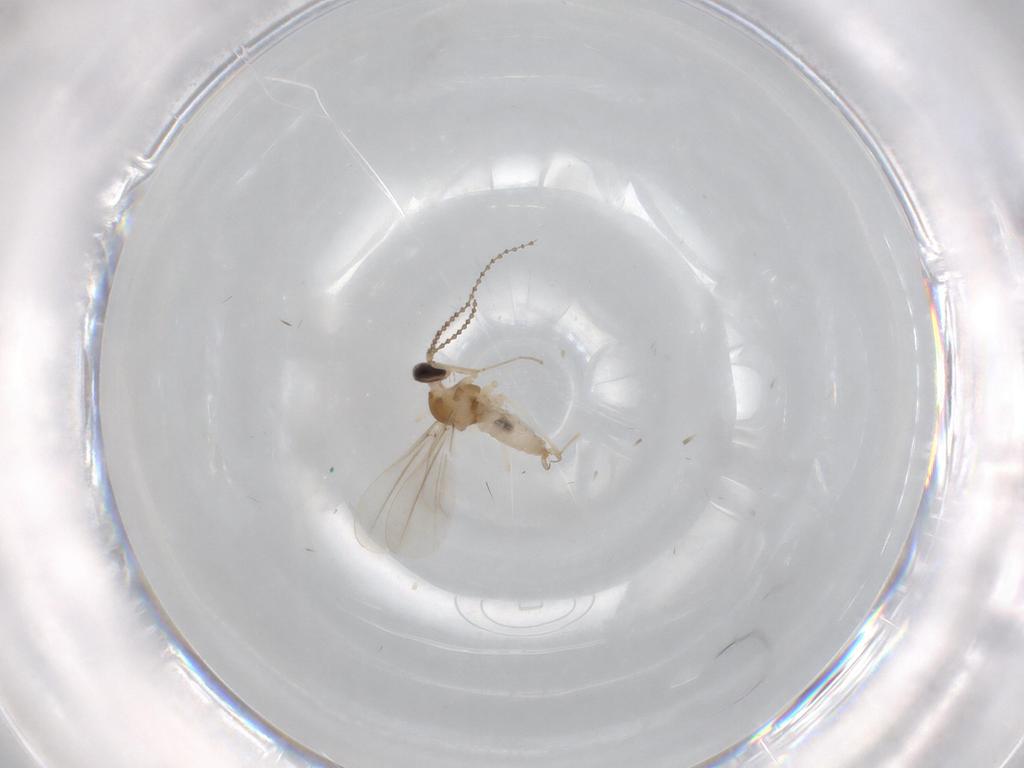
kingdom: Animalia
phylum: Arthropoda
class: Insecta
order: Diptera
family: Cecidomyiidae
